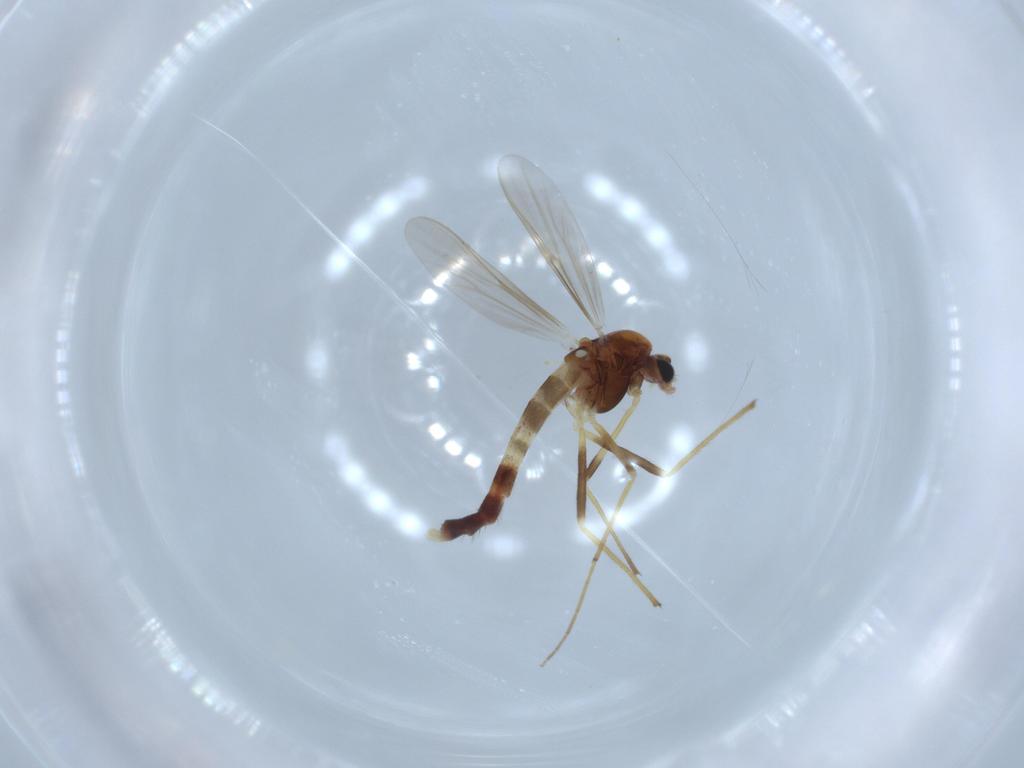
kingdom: Animalia
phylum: Arthropoda
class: Insecta
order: Diptera
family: Chironomidae
